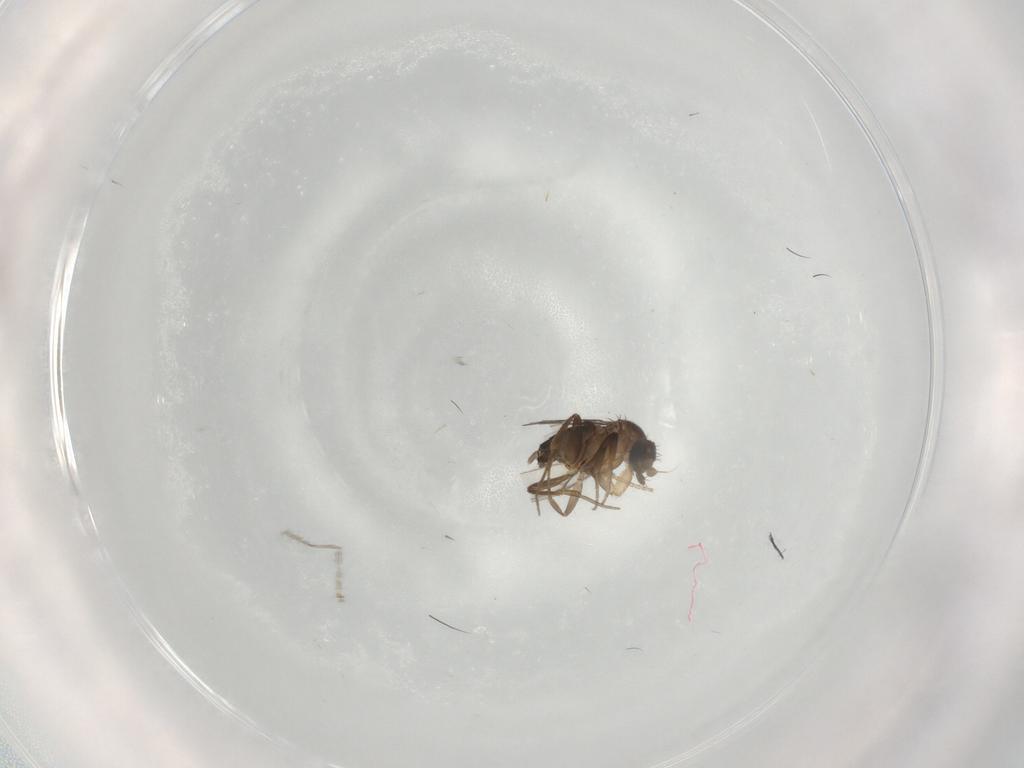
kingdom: Animalia
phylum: Arthropoda
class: Insecta
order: Diptera
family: Phoridae
